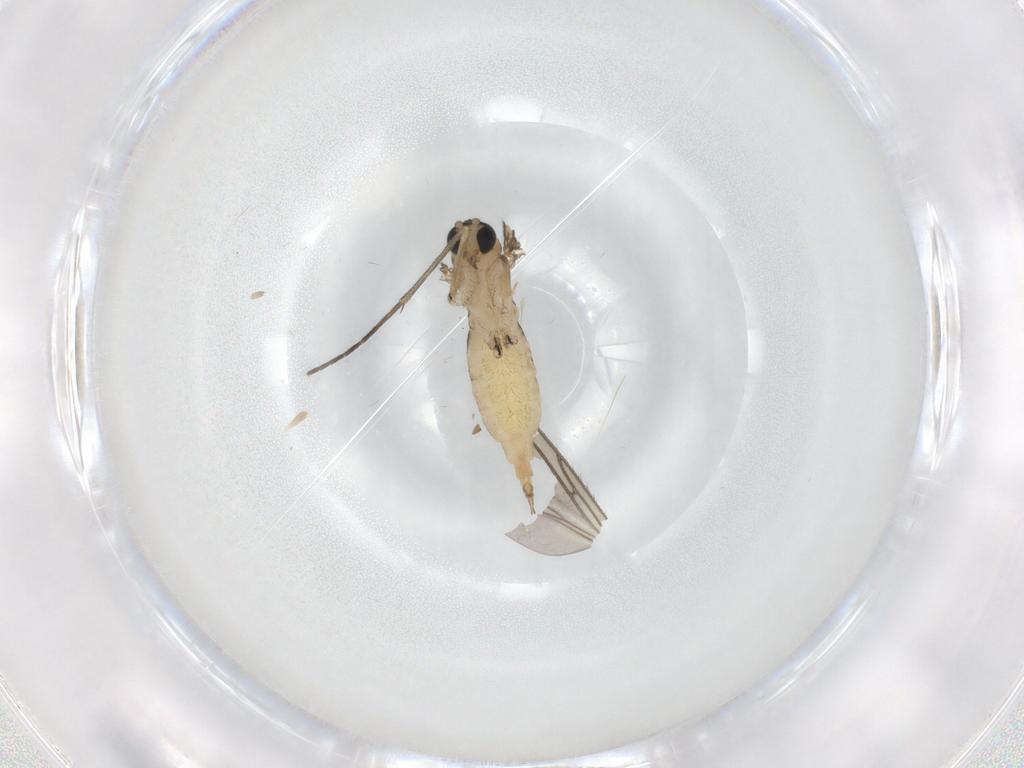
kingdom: Animalia
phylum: Arthropoda
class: Insecta
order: Diptera
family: Sciaridae
